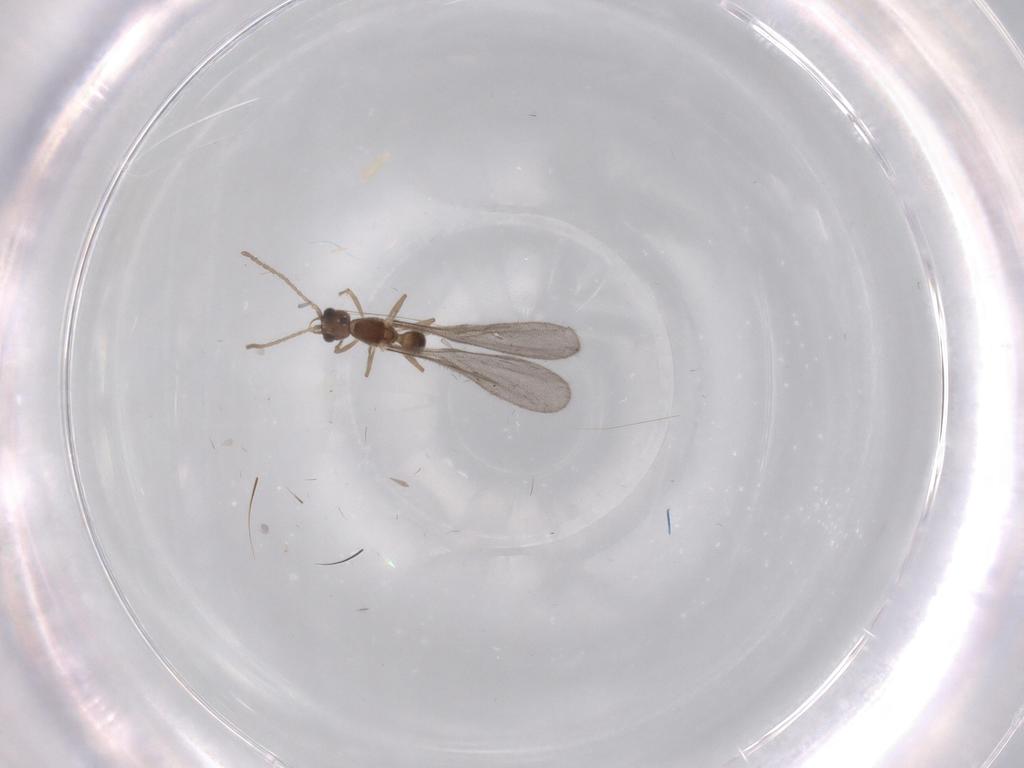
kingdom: Animalia
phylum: Arthropoda
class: Insecta
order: Hymenoptera
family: Formicidae
